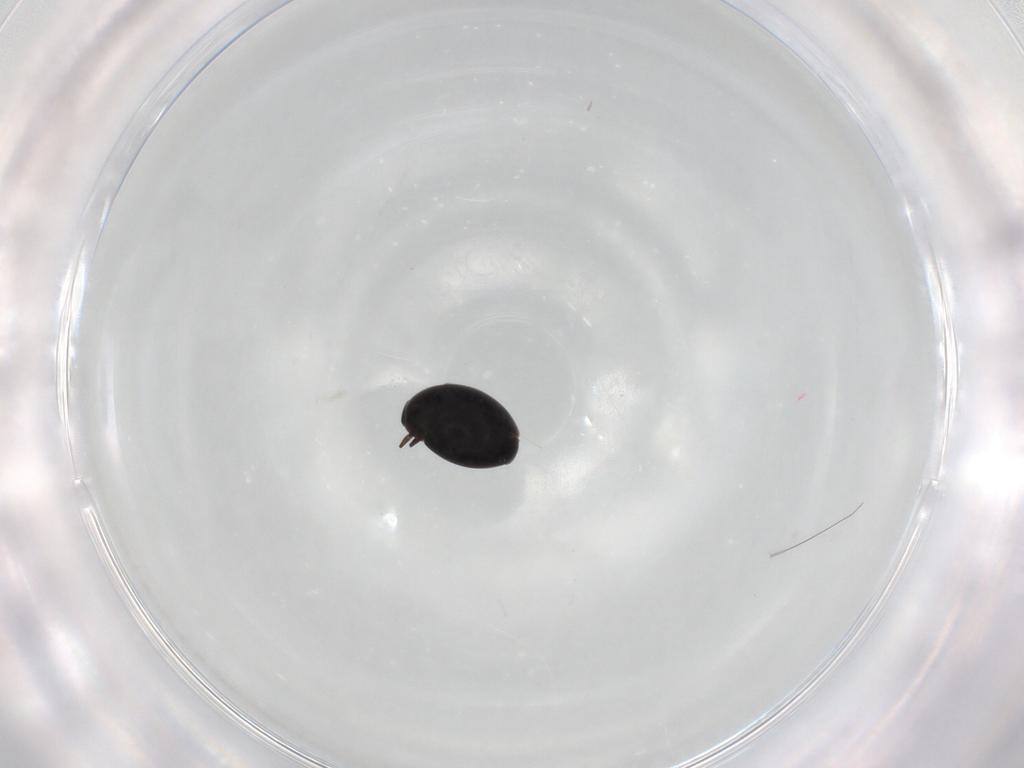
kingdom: Animalia
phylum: Arthropoda
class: Insecta
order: Coleoptera
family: Corylophidae
